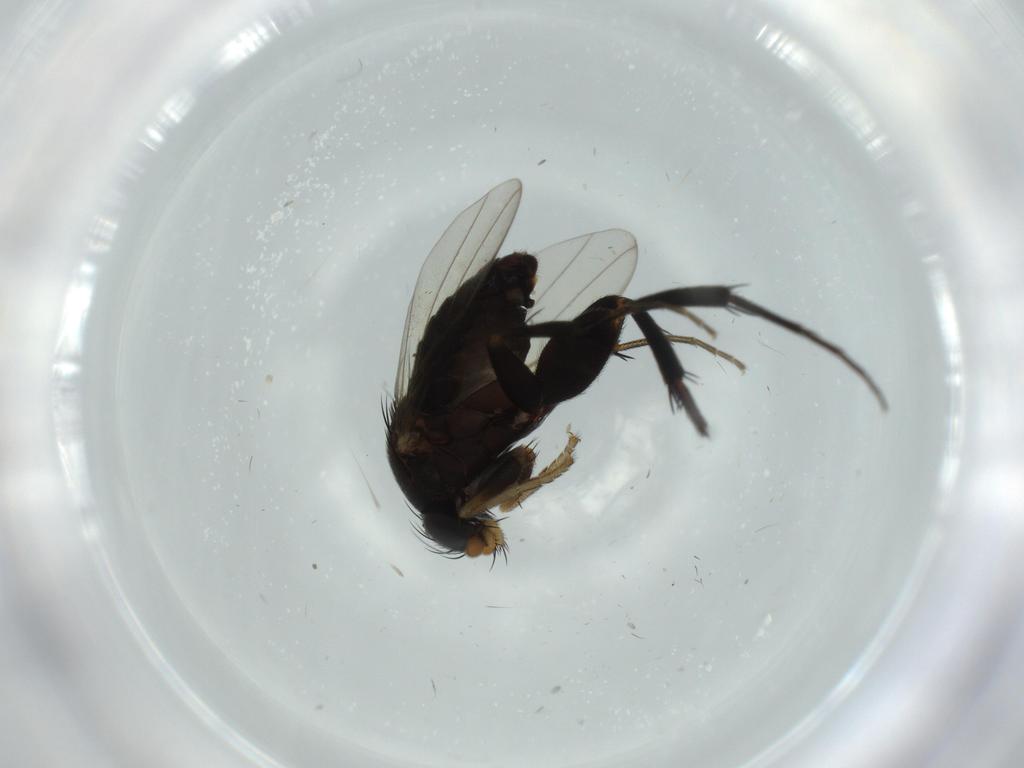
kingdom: Animalia
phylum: Arthropoda
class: Insecta
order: Diptera
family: Phoridae
